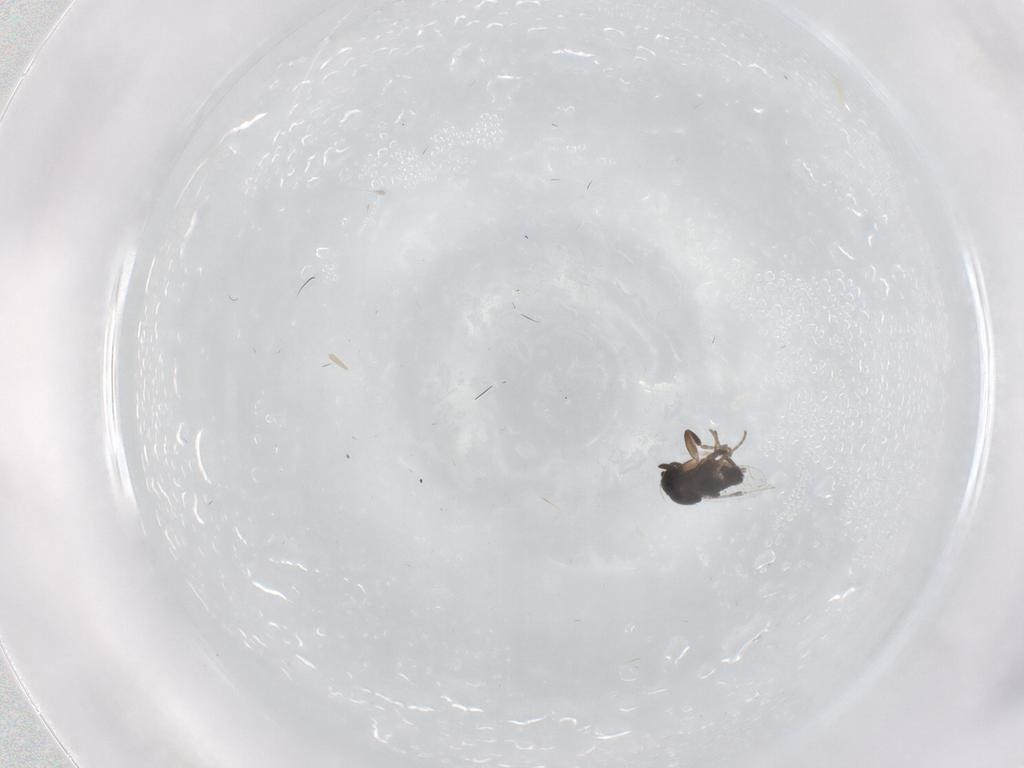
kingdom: Animalia
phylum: Arthropoda
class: Insecta
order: Diptera
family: Phoridae
